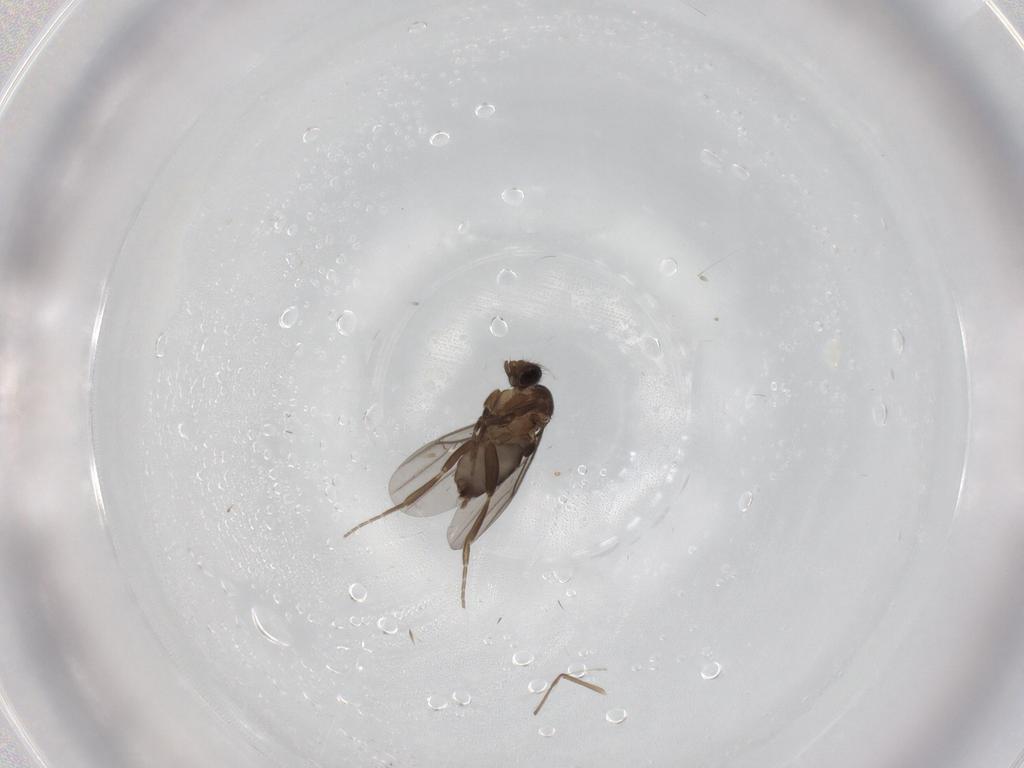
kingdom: Animalia
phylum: Arthropoda
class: Insecta
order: Diptera
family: Phoridae
